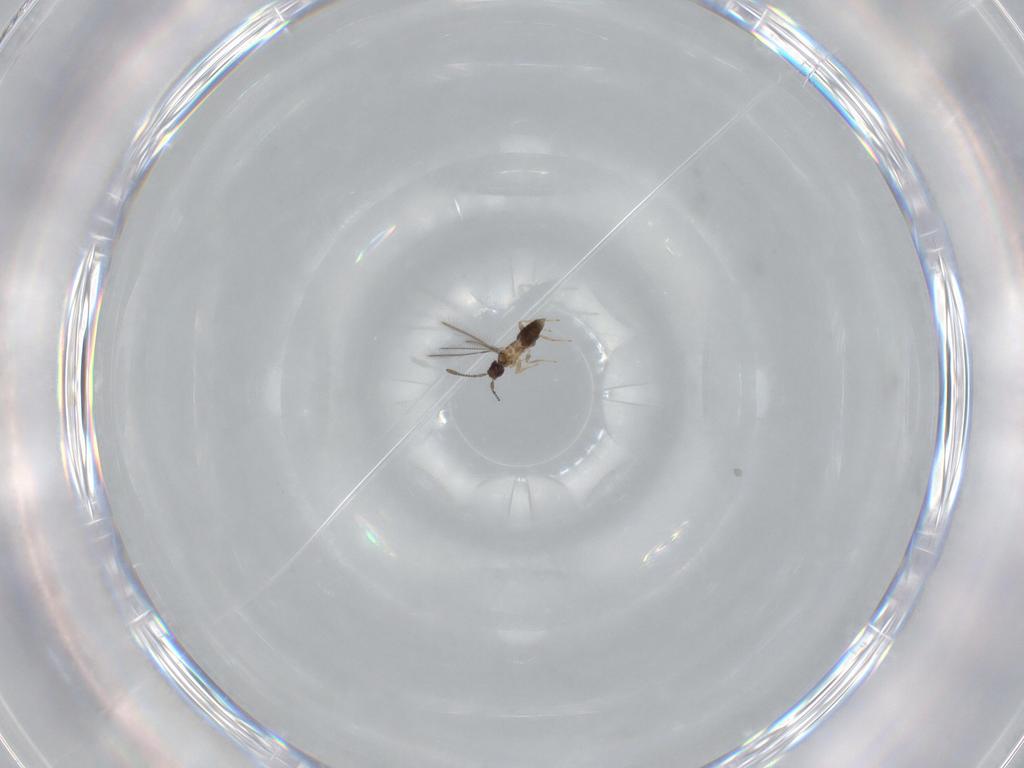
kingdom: Animalia
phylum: Arthropoda
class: Insecta
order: Hymenoptera
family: Mymaridae
